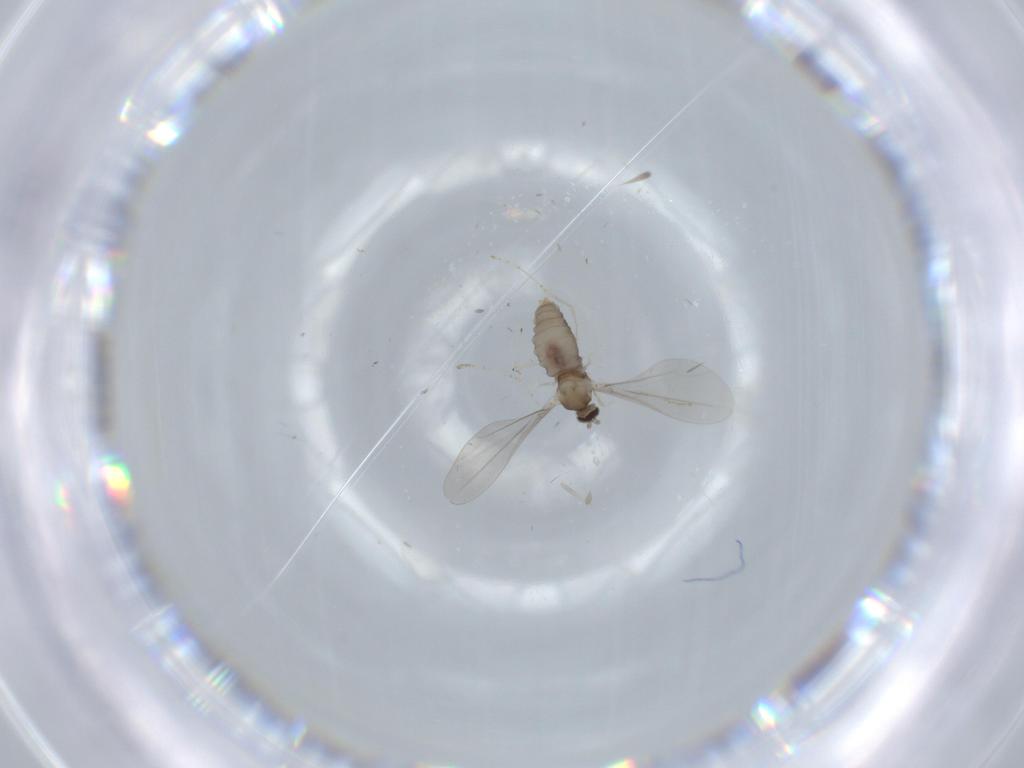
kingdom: Animalia
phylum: Arthropoda
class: Insecta
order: Diptera
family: Cecidomyiidae
